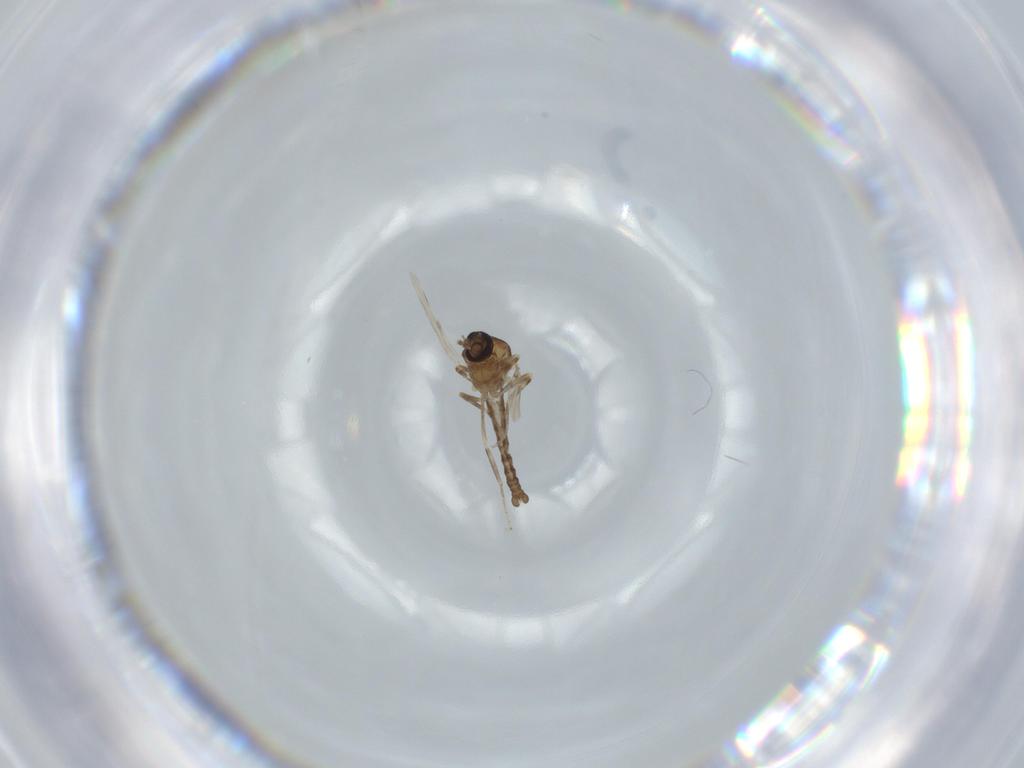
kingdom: Animalia
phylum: Arthropoda
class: Insecta
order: Diptera
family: Ceratopogonidae
